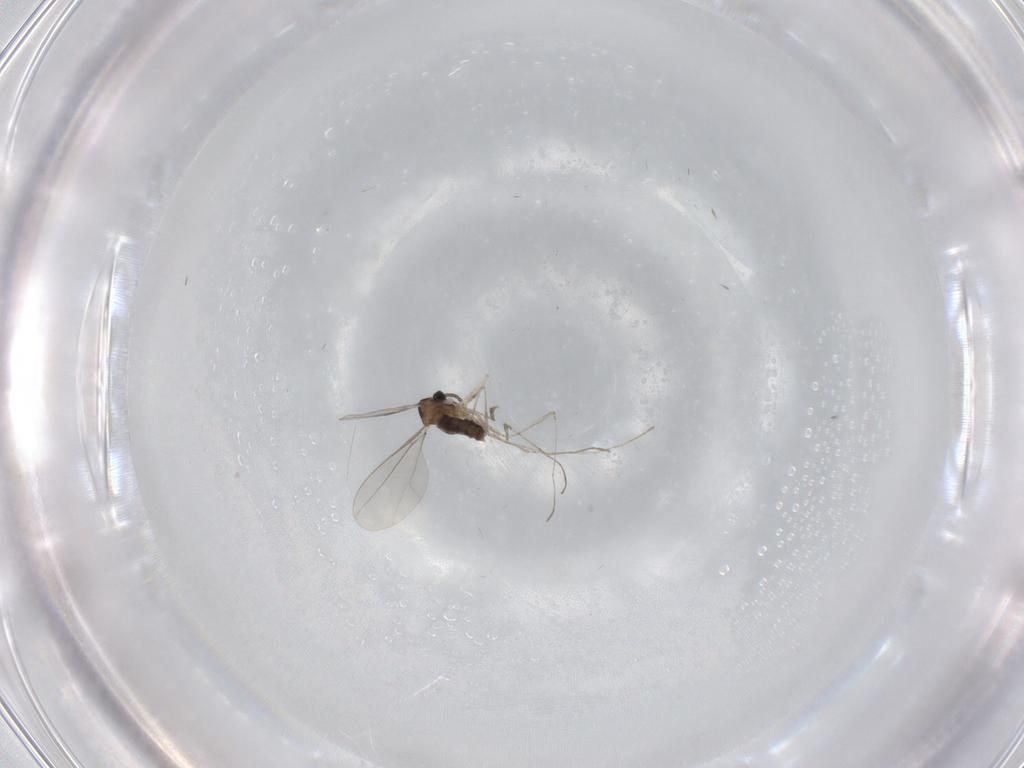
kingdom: Animalia
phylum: Arthropoda
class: Insecta
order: Diptera
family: Cecidomyiidae
